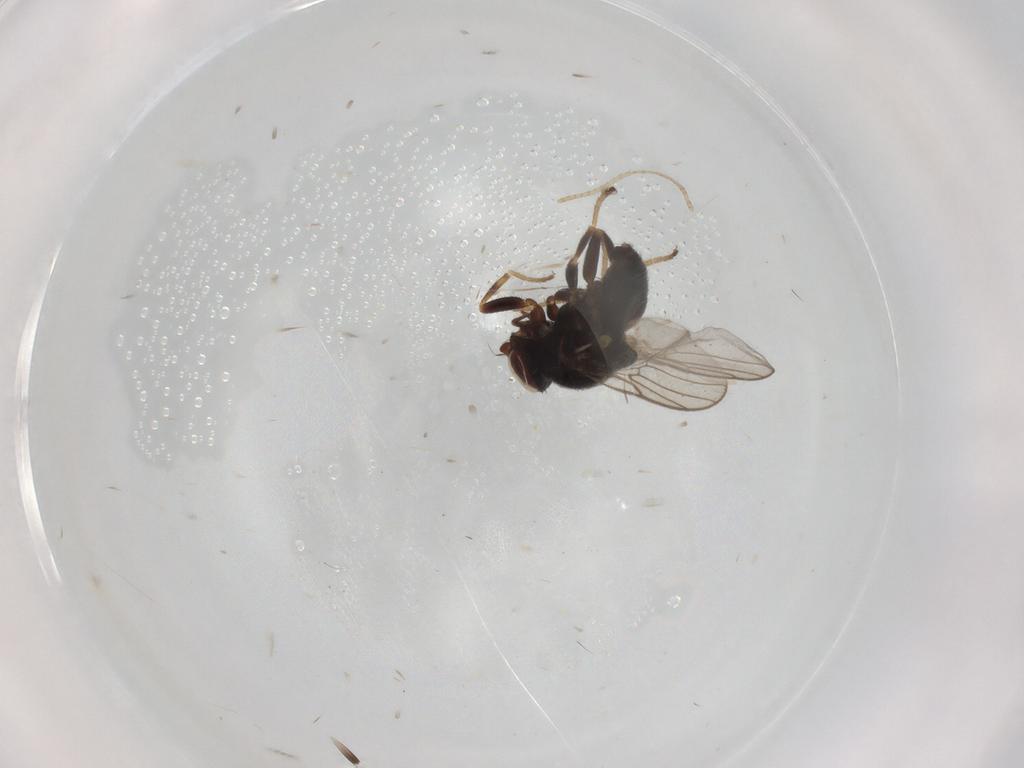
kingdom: Animalia
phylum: Arthropoda
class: Insecta
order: Diptera
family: Chloropidae
